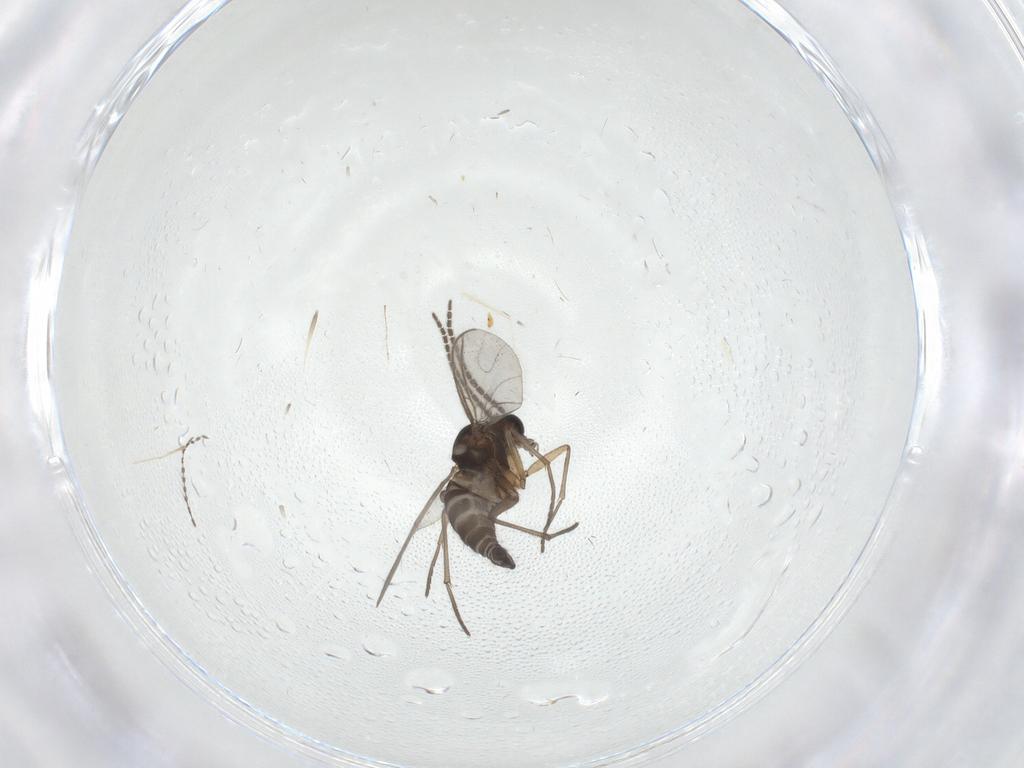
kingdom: Animalia
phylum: Arthropoda
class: Insecta
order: Diptera
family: Sciaridae
